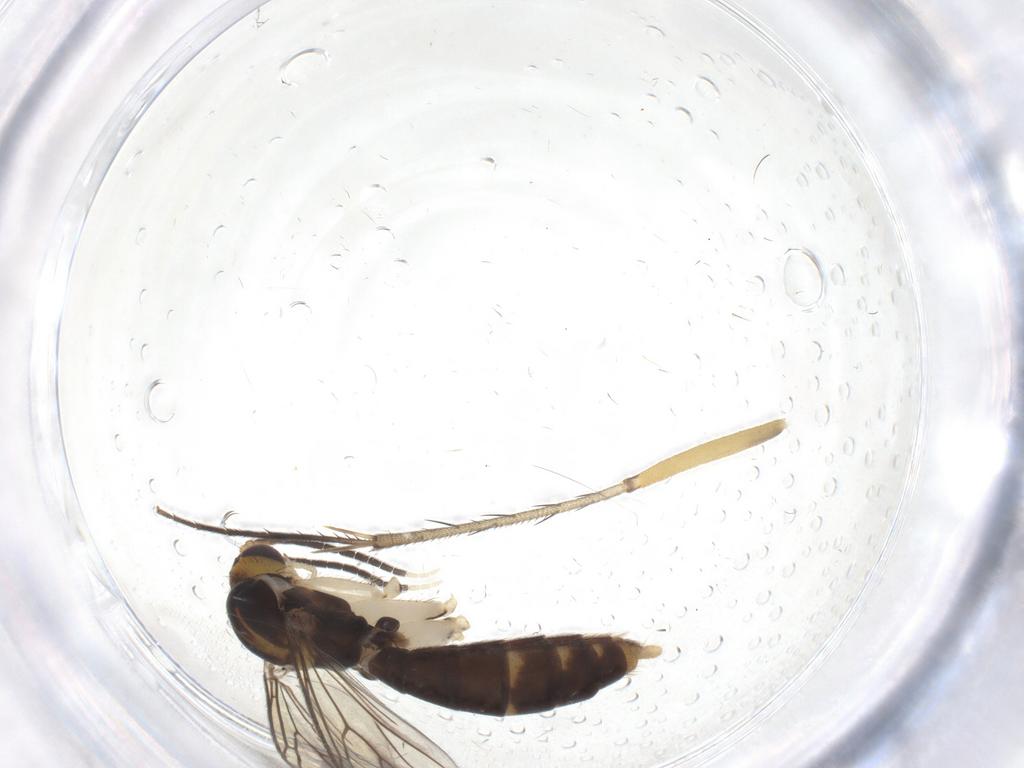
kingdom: Animalia
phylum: Arthropoda
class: Insecta
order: Diptera
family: Mycetophilidae
